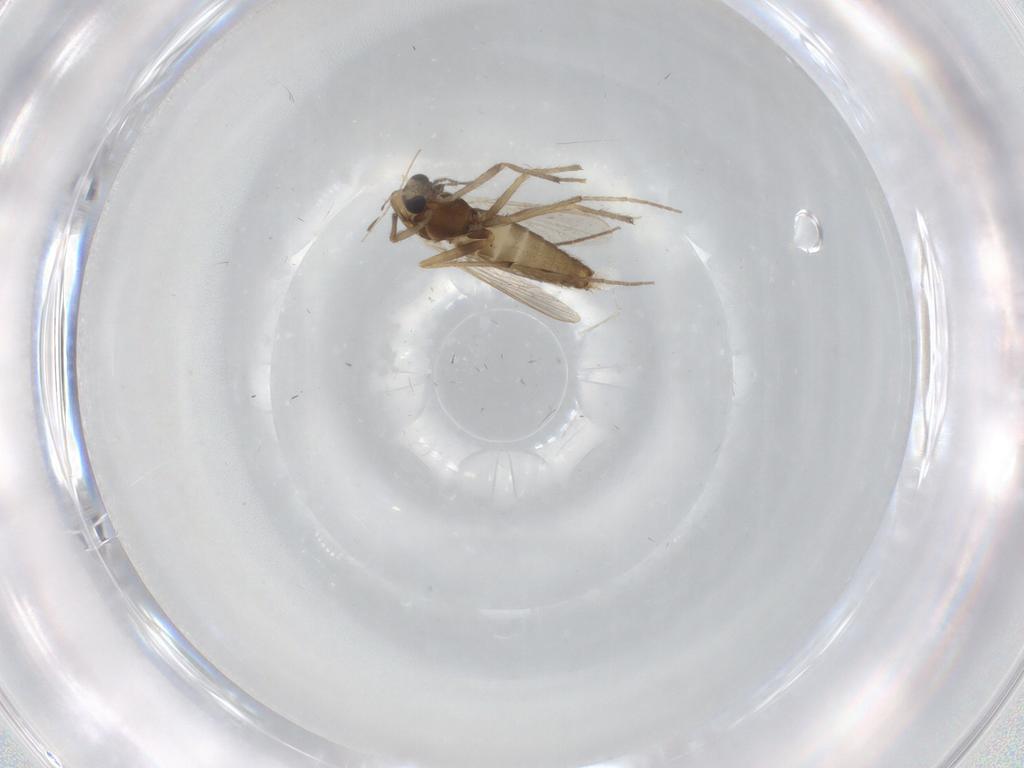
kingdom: Animalia
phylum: Arthropoda
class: Insecta
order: Diptera
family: Chironomidae
